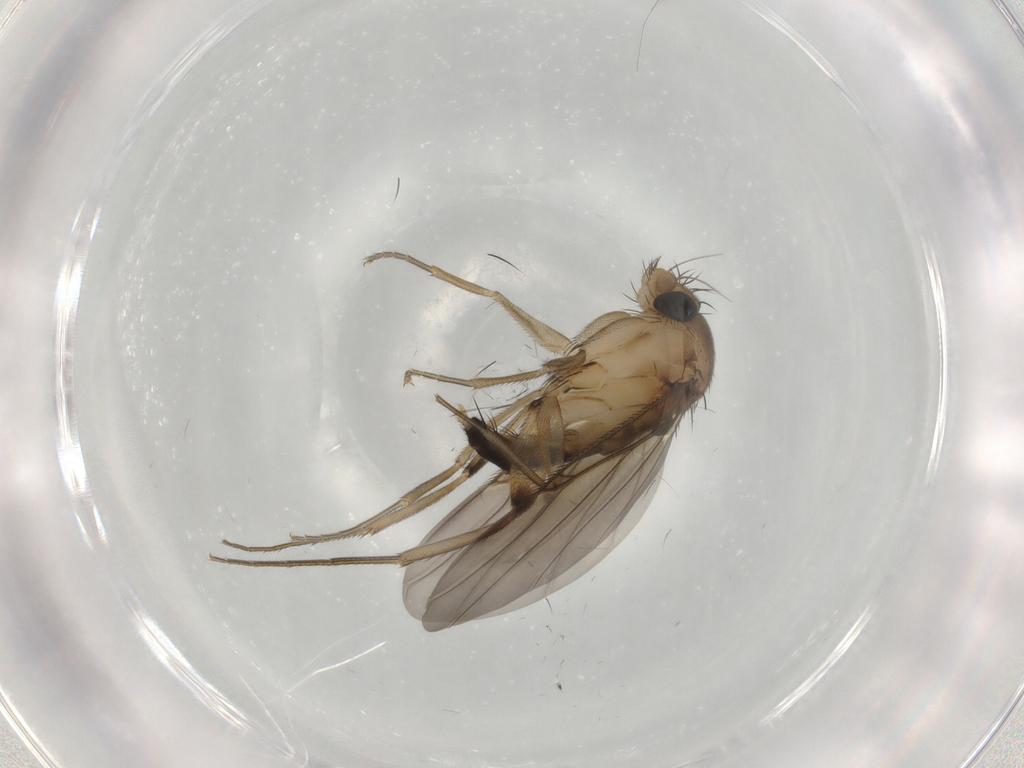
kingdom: Animalia
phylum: Arthropoda
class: Insecta
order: Diptera
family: Phoridae
